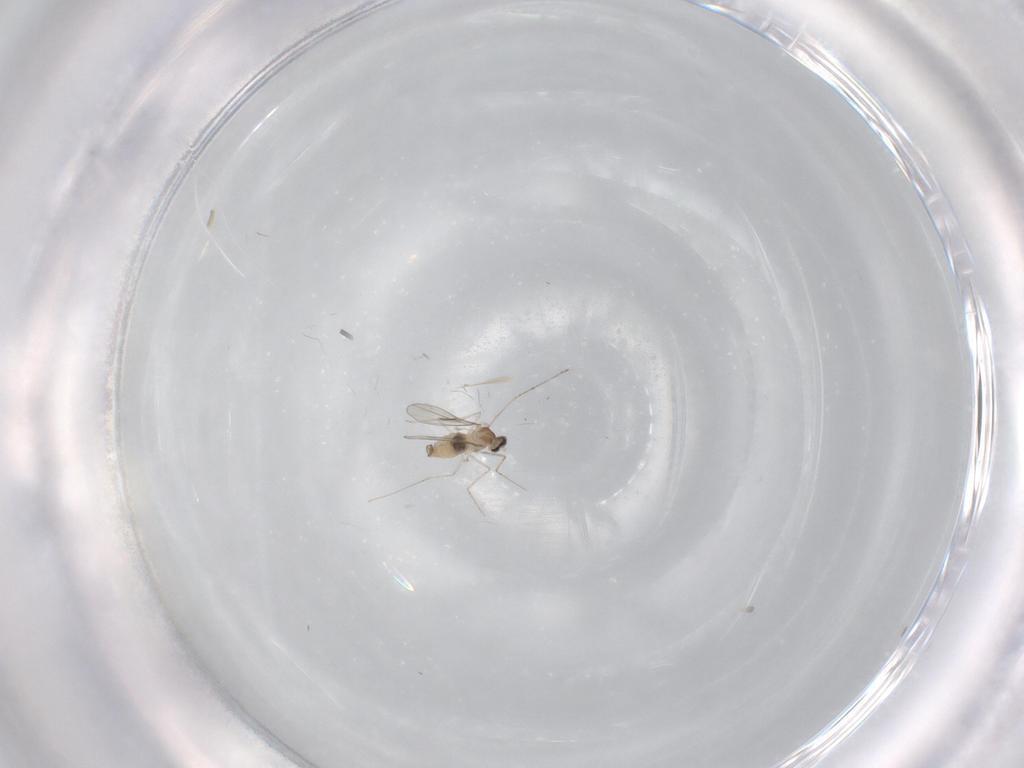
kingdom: Animalia
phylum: Arthropoda
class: Insecta
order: Diptera
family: Cecidomyiidae
